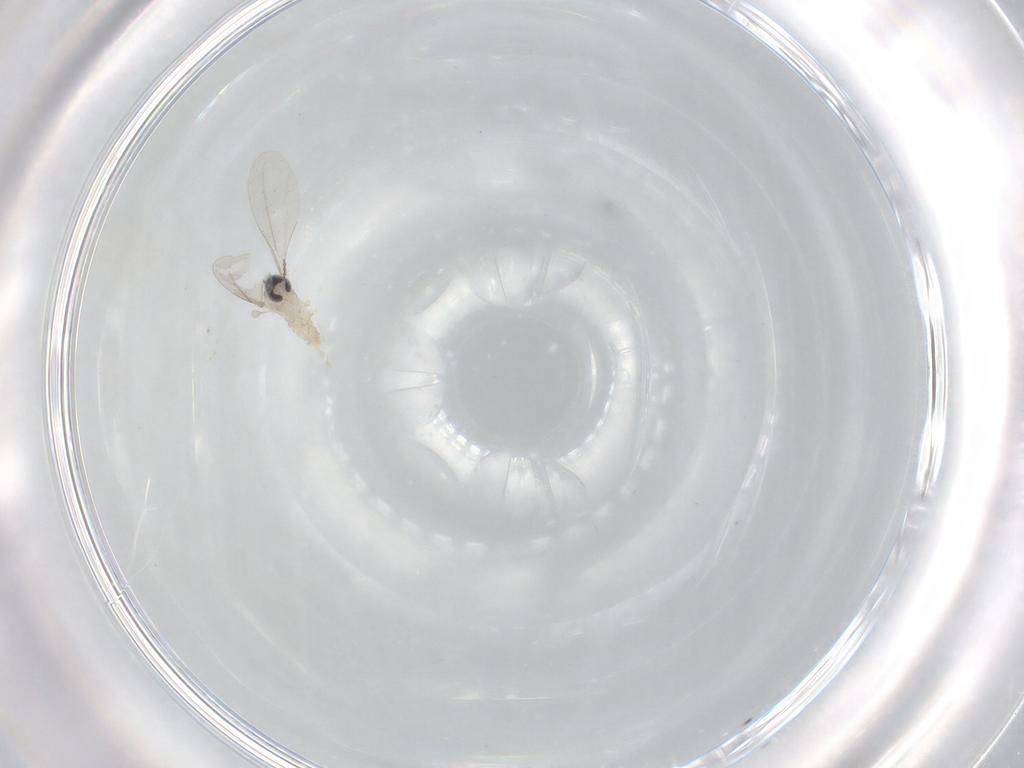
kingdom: Animalia
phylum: Arthropoda
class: Insecta
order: Diptera
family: Cecidomyiidae
